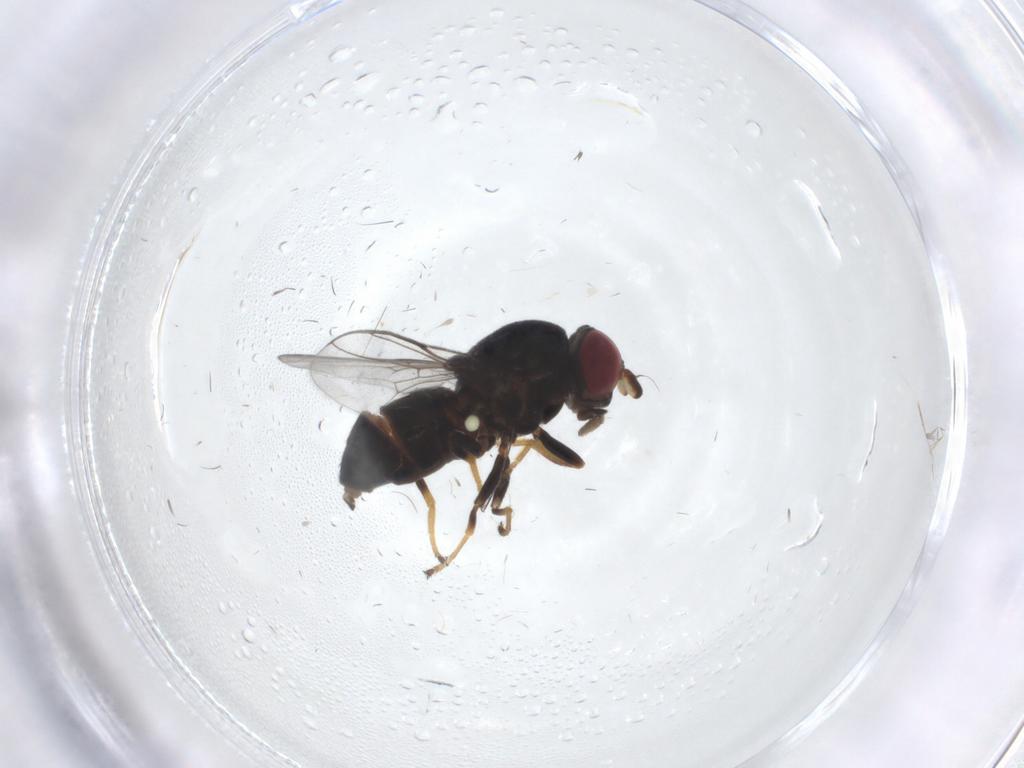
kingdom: Animalia
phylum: Arthropoda
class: Insecta
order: Diptera
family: Chloropidae
